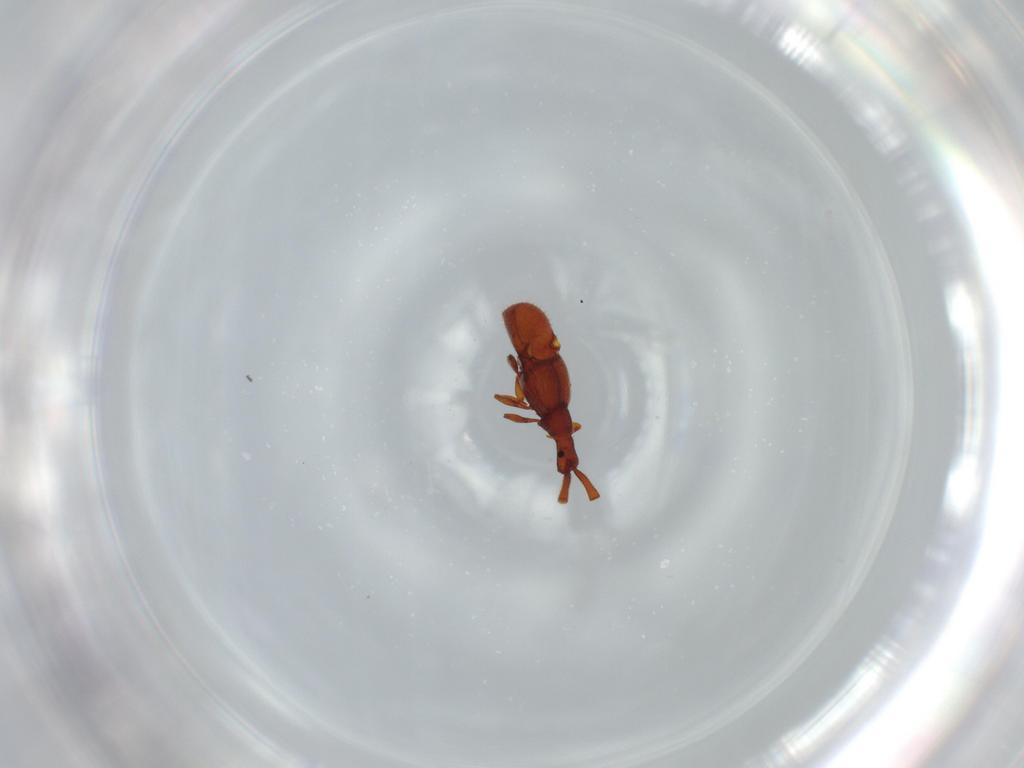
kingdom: Animalia
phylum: Arthropoda
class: Insecta
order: Coleoptera
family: Staphylinidae
